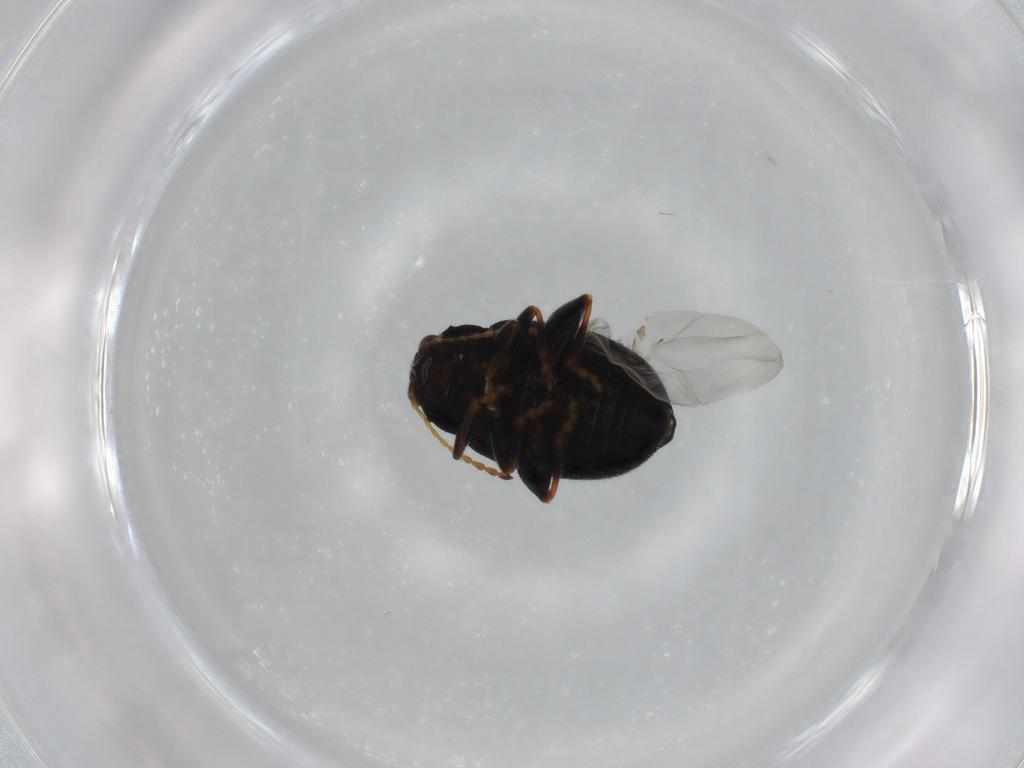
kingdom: Animalia
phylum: Arthropoda
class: Insecta
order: Coleoptera
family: Chrysomelidae
